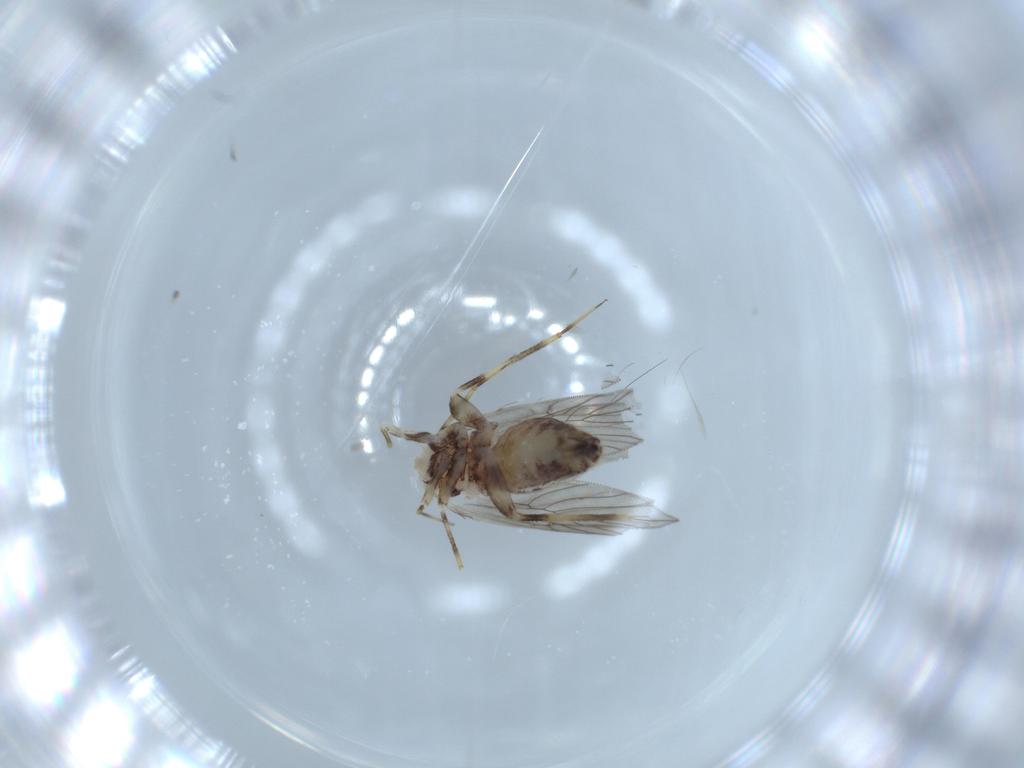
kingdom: Animalia
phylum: Arthropoda
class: Insecta
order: Psocodea
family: Lepidopsocidae
